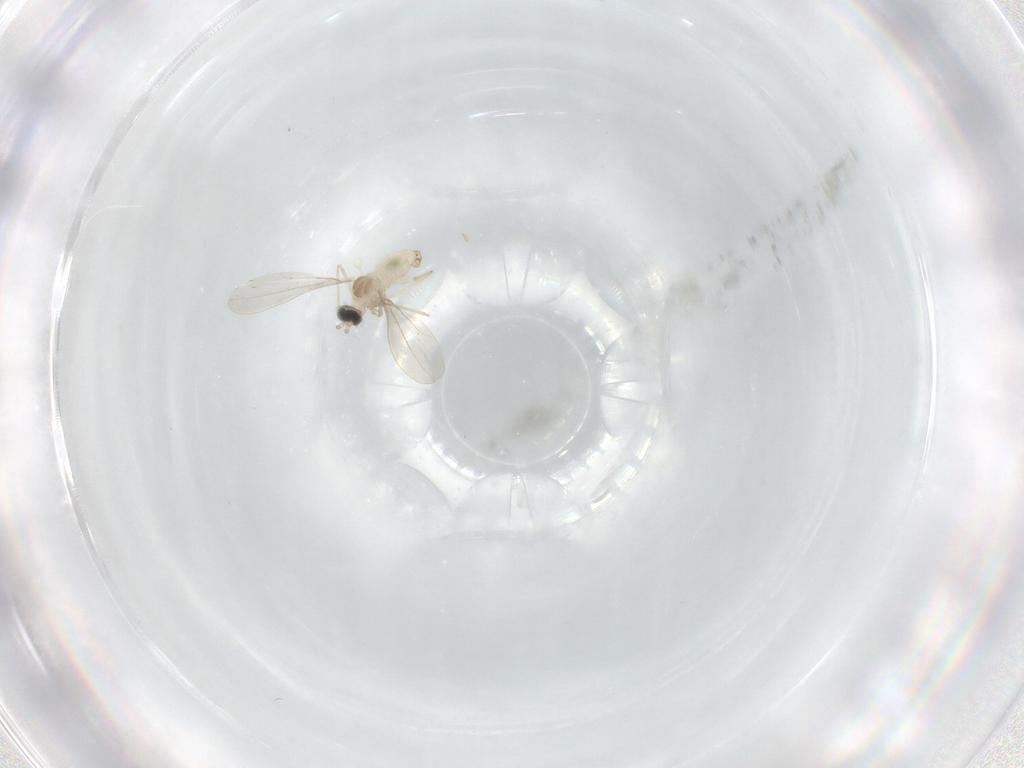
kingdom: Animalia
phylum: Arthropoda
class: Insecta
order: Diptera
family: Cecidomyiidae
